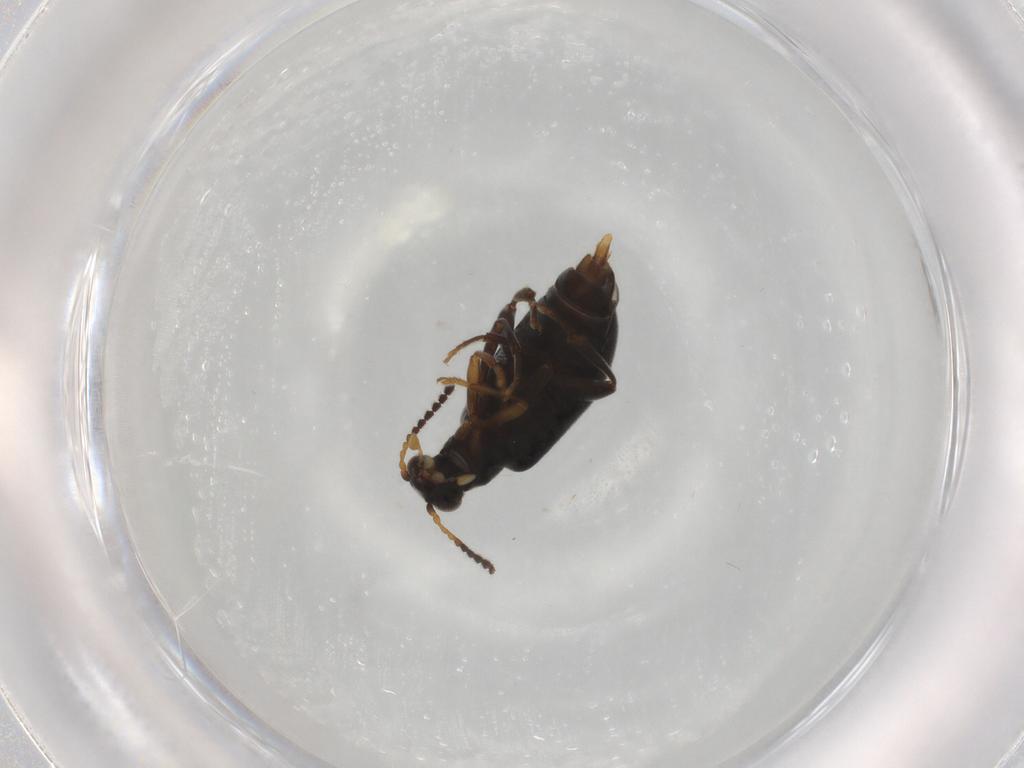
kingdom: Animalia
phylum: Arthropoda
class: Insecta
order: Coleoptera
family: Aderidae
